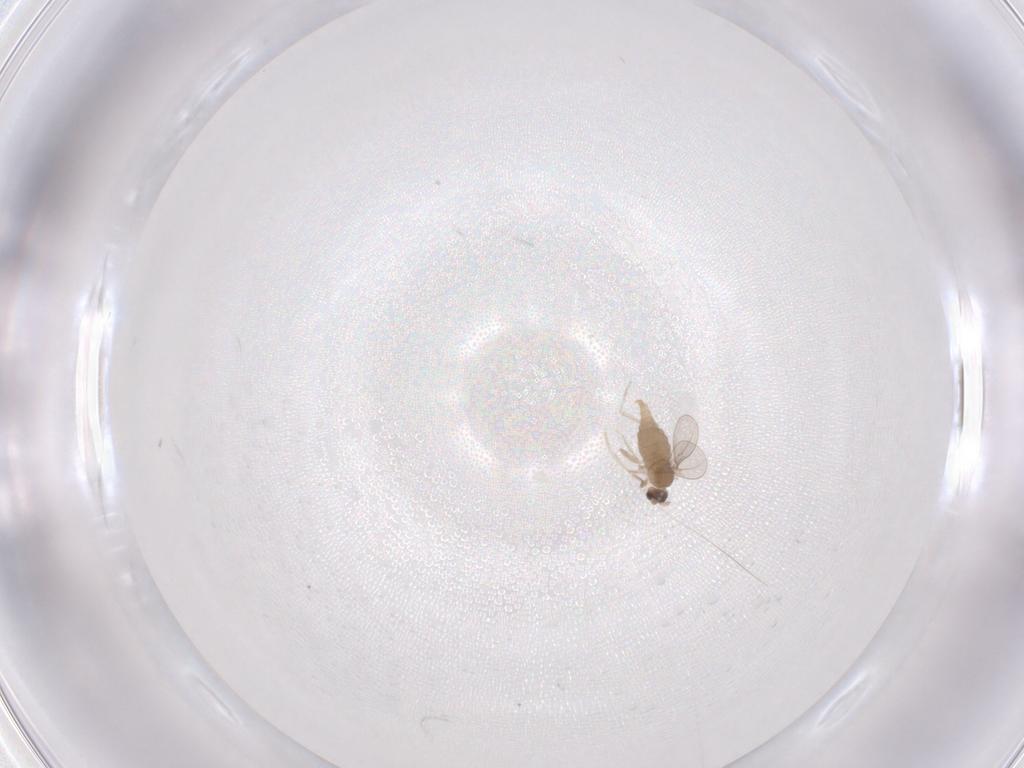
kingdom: Animalia
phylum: Arthropoda
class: Insecta
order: Diptera
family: Cecidomyiidae
